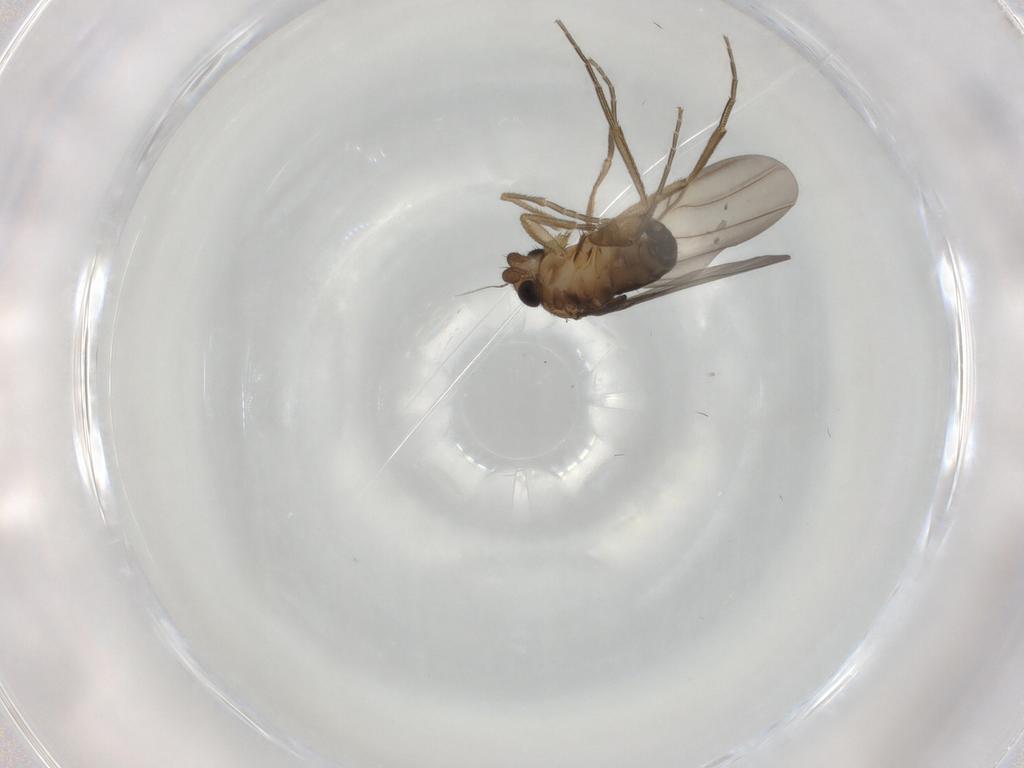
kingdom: Animalia
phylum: Arthropoda
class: Insecta
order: Diptera
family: Phoridae
